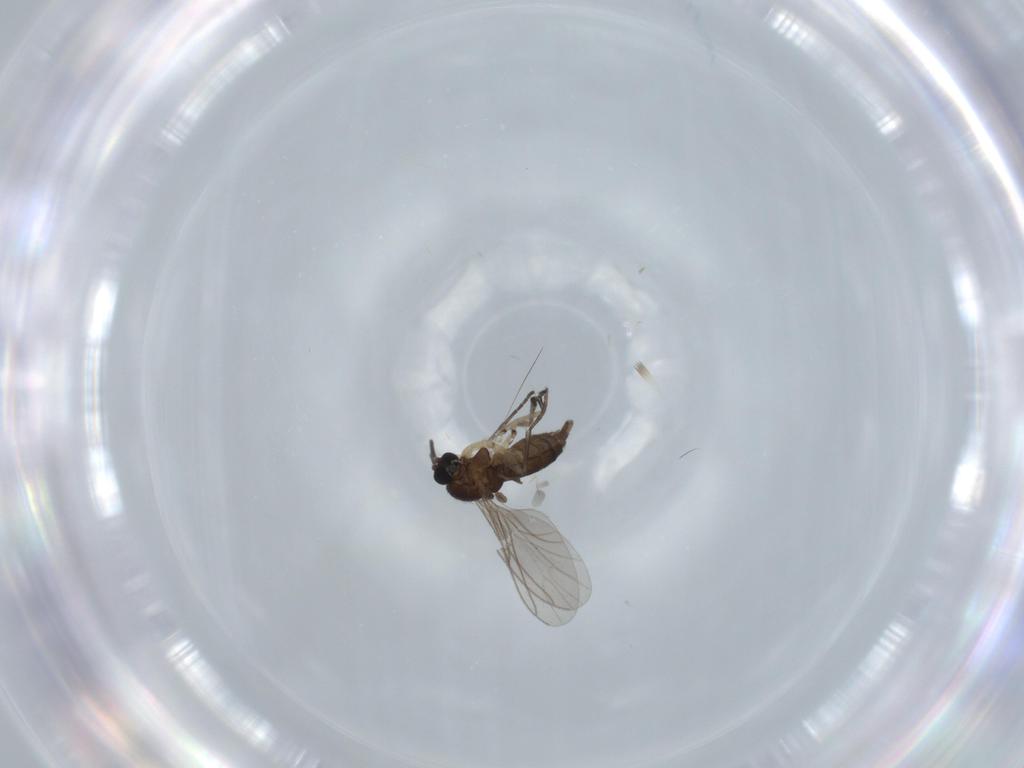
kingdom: Animalia
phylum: Arthropoda
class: Insecta
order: Diptera
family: Sciaridae
